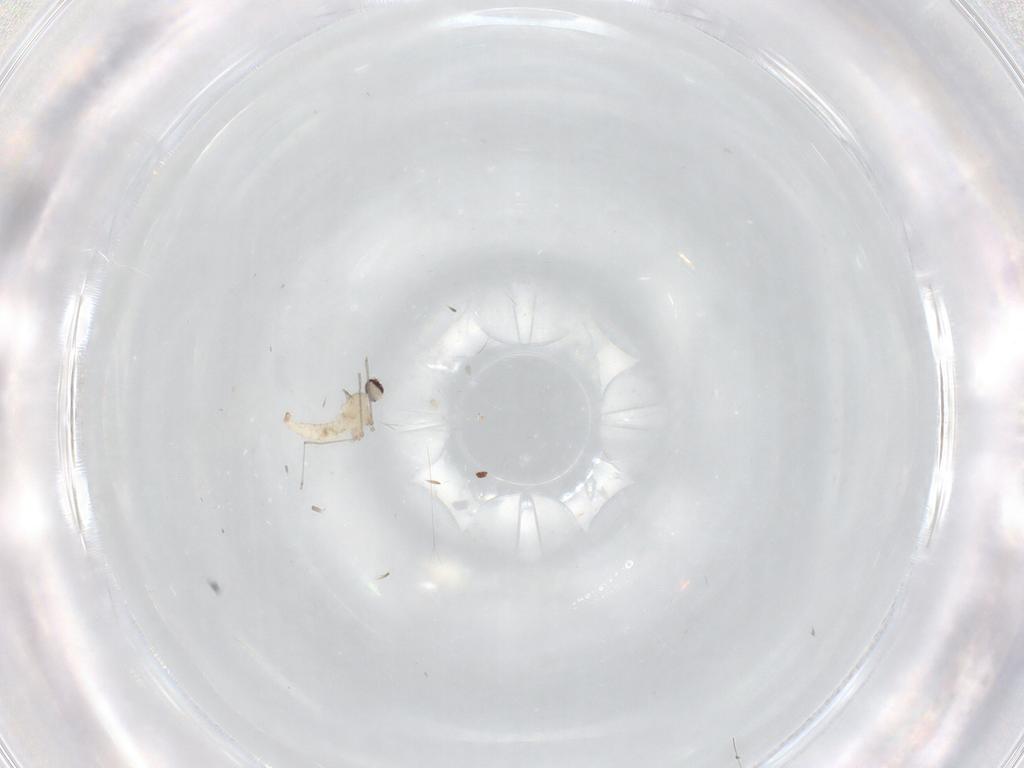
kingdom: Animalia
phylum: Arthropoda
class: Insecta
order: Diptera
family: Cecidomyiidae
